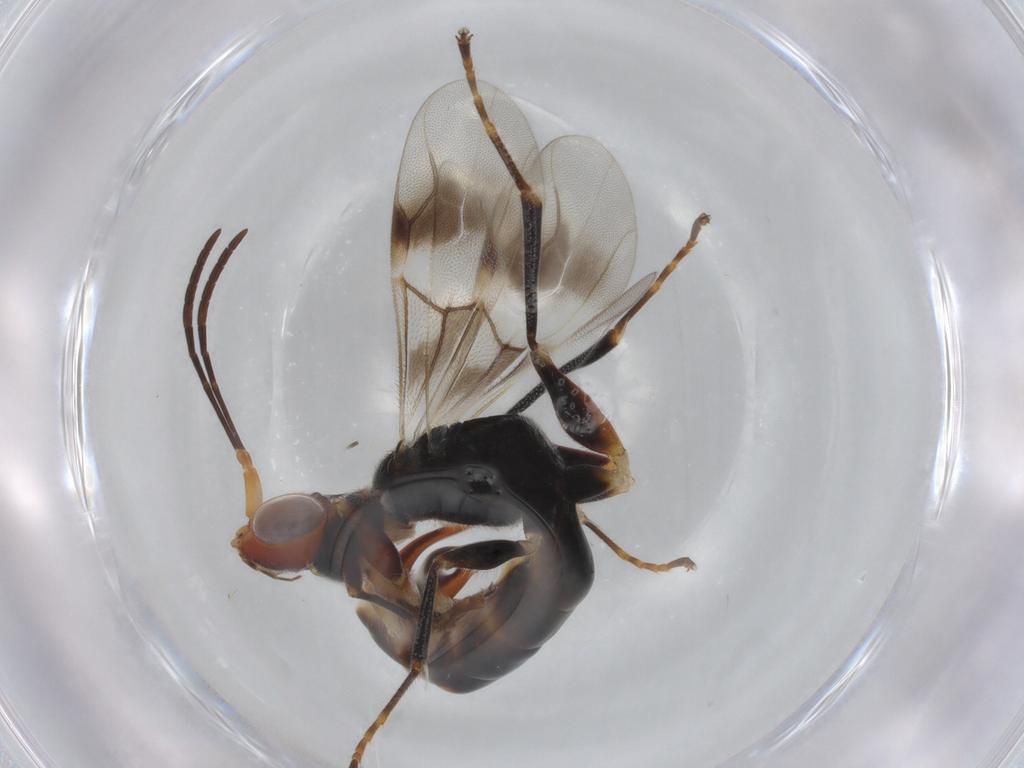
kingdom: Animalia
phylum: Arthropoda
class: Insecta
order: Hymenoptera
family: Dryinidae
